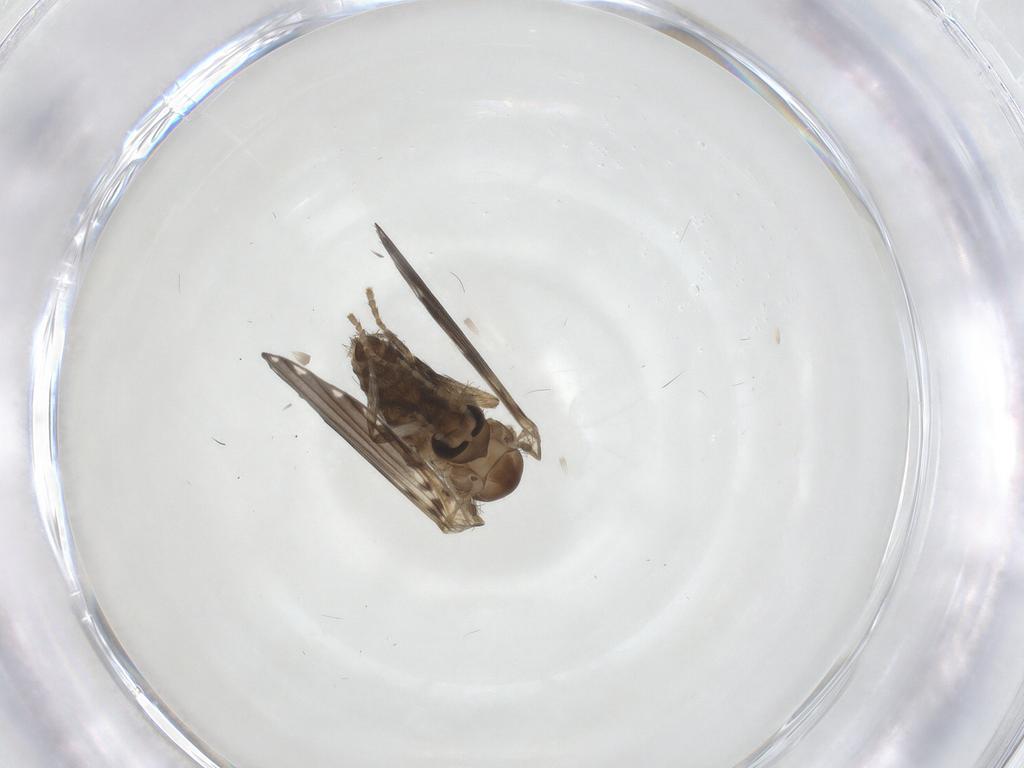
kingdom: Animalia
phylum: Arthropoda
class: Insecta
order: Diptera
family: Psychodidae
